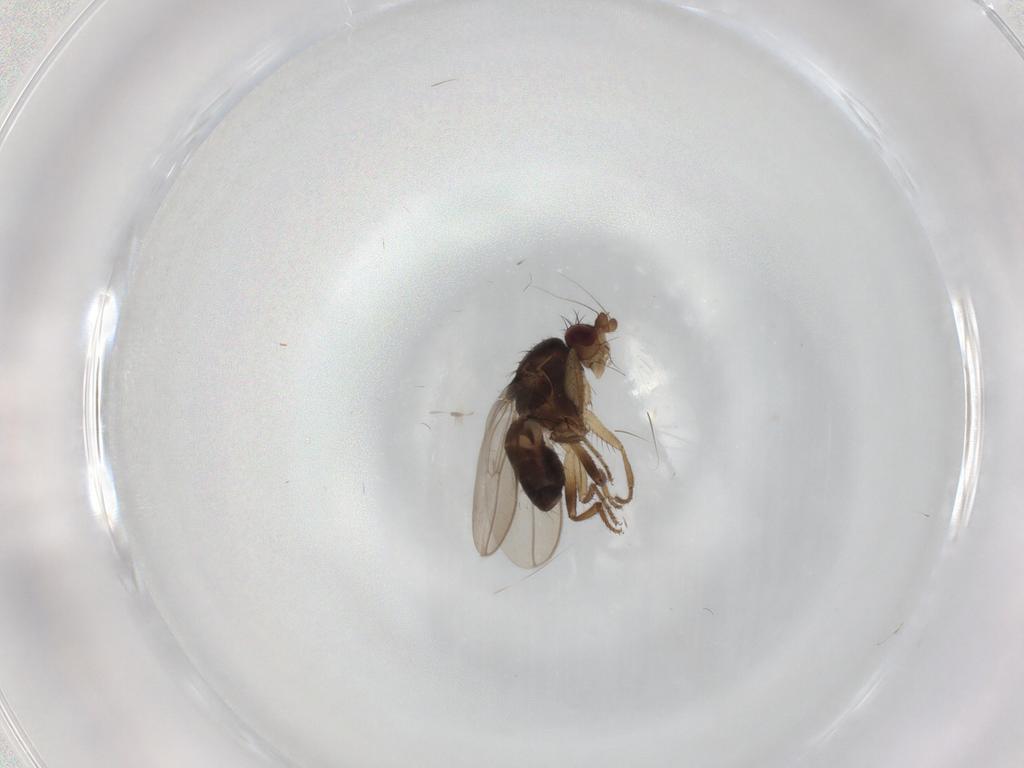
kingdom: Animalia
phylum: Arthropoda
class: Insecta
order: Diptera
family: Sphaeroceridae
